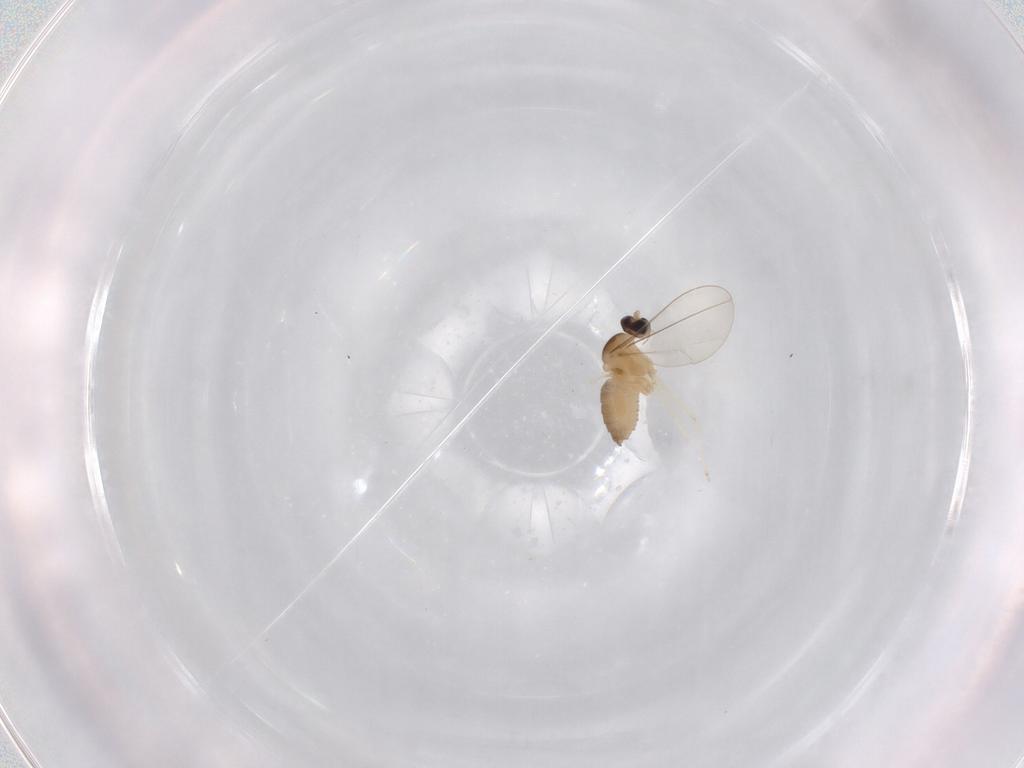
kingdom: Animalia
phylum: Arthropoda
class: Insecta
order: Diptera
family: Cecidomyiidae
